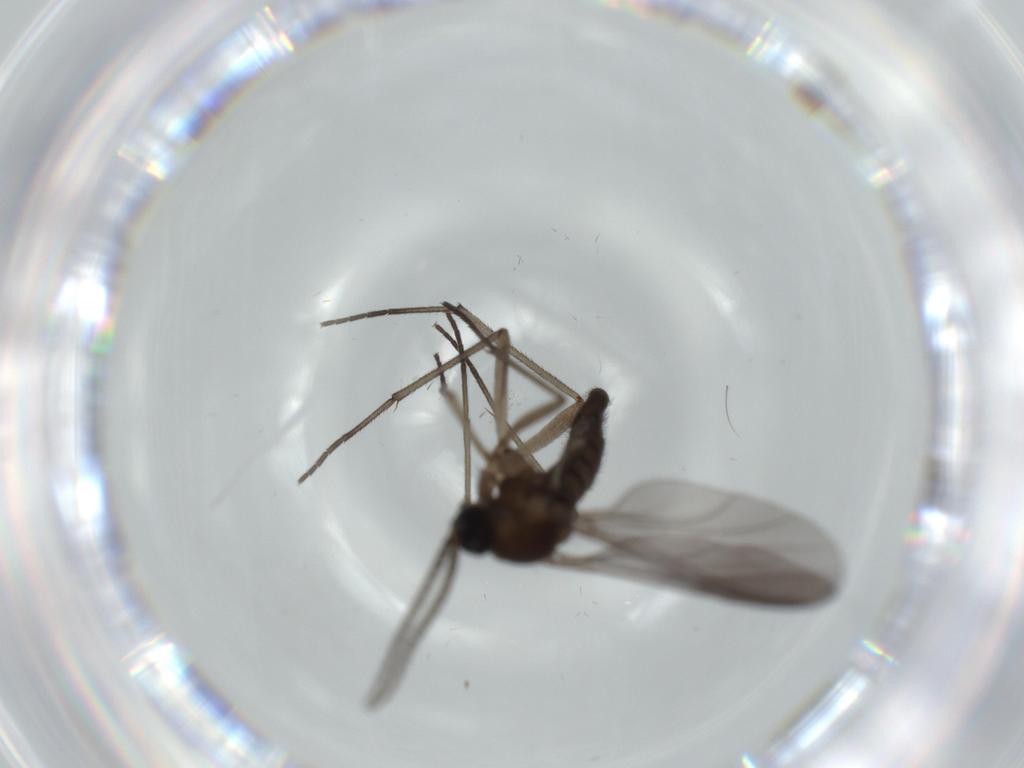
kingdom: Animalia
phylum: Arthropoda
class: Insecta
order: Diptera
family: Sciaridae
